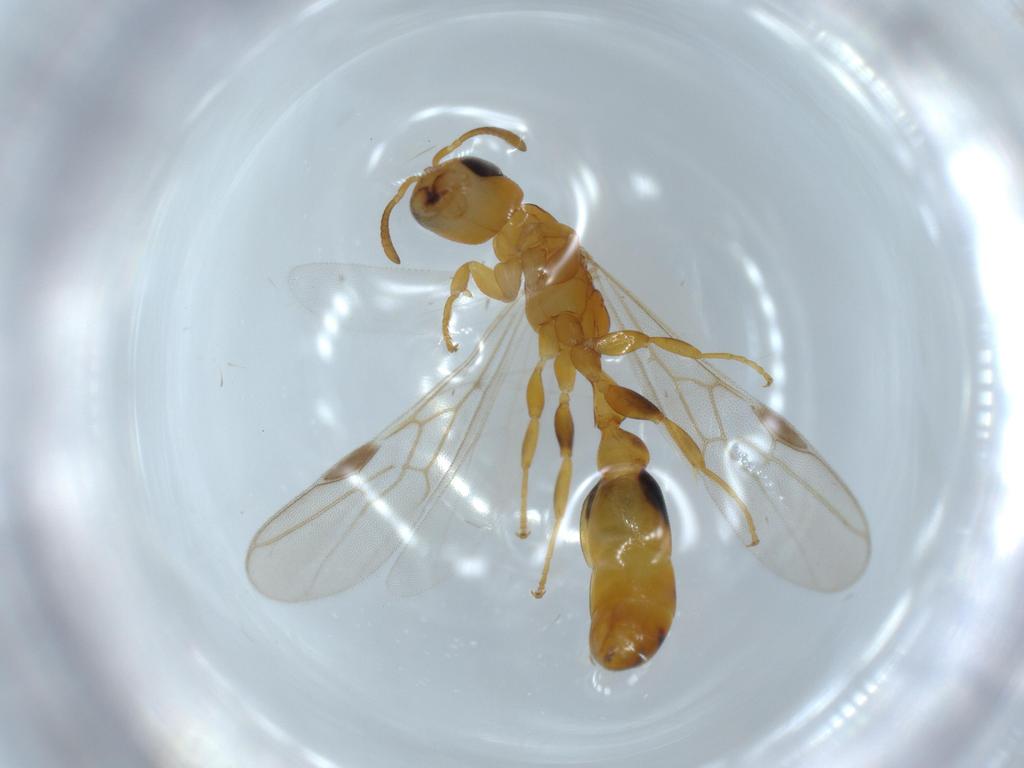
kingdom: Animalia
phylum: Arthropoda
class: Insecta
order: Hymenoptera
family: Formicidae
